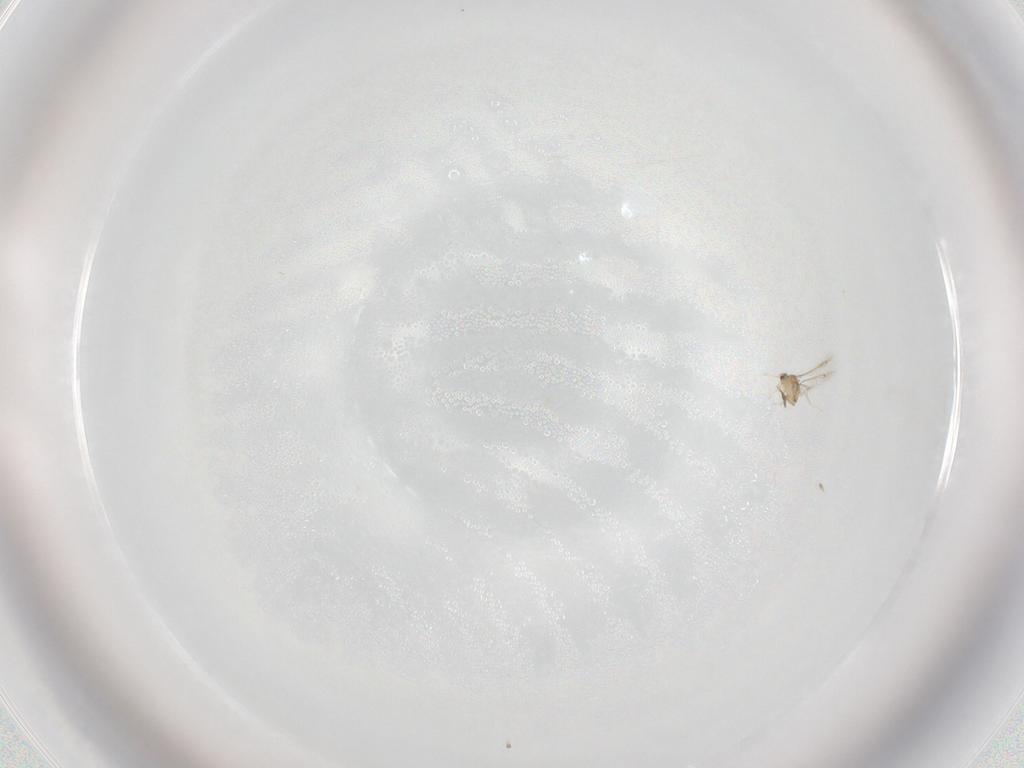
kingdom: Animalia
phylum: Arthropoda
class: Insecta
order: Hymenoptera
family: Mymaridae
